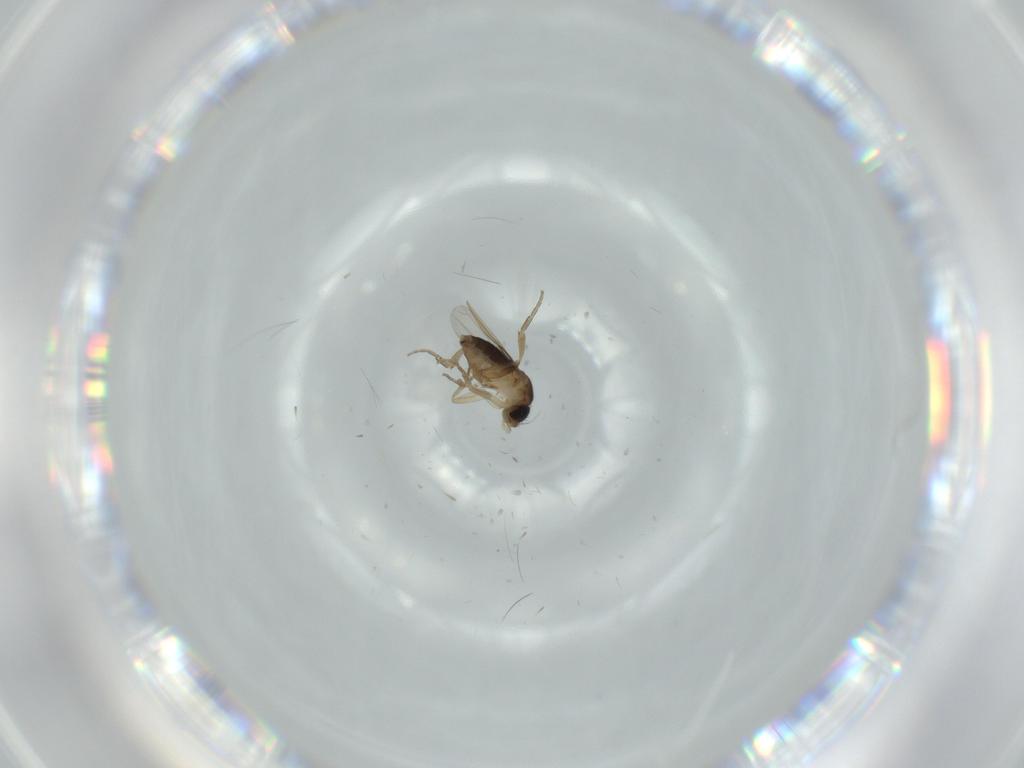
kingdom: Animalia
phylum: Arthropoda
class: Insecta
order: Diptera
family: Phoridae
